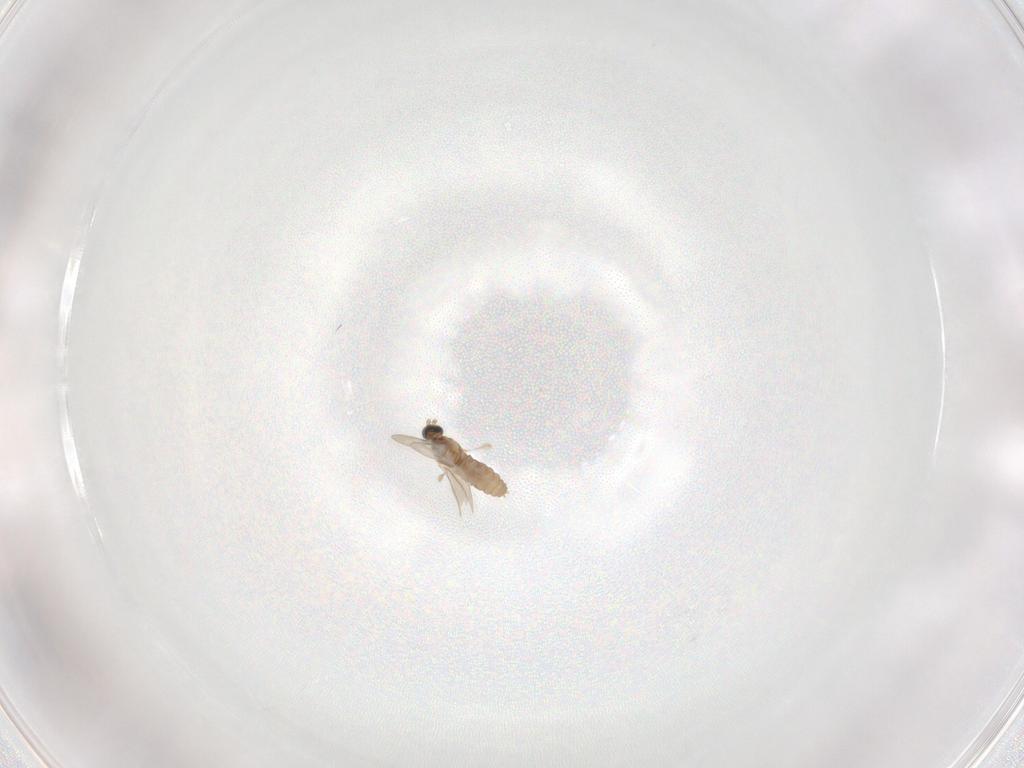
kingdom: Animalia
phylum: Arthropoda
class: Insecta
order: Diptera
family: Cecidomyiidae
